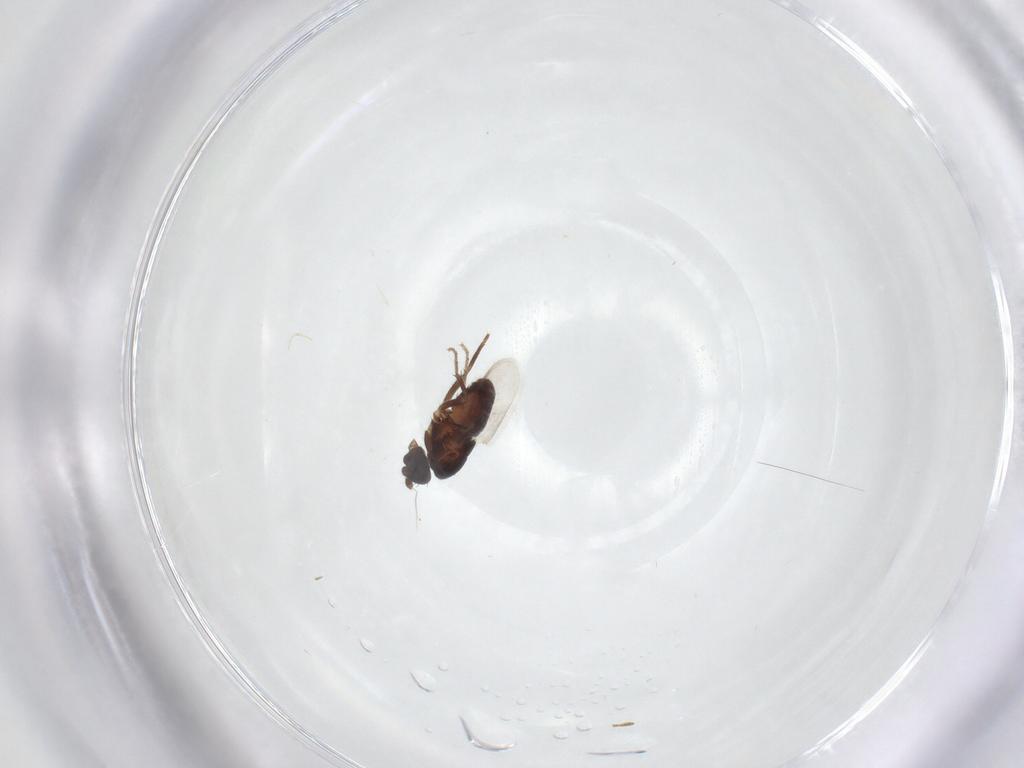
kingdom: Animalia
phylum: Arthropoda
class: Insecta
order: Diptera
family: Sphaeroceridae
